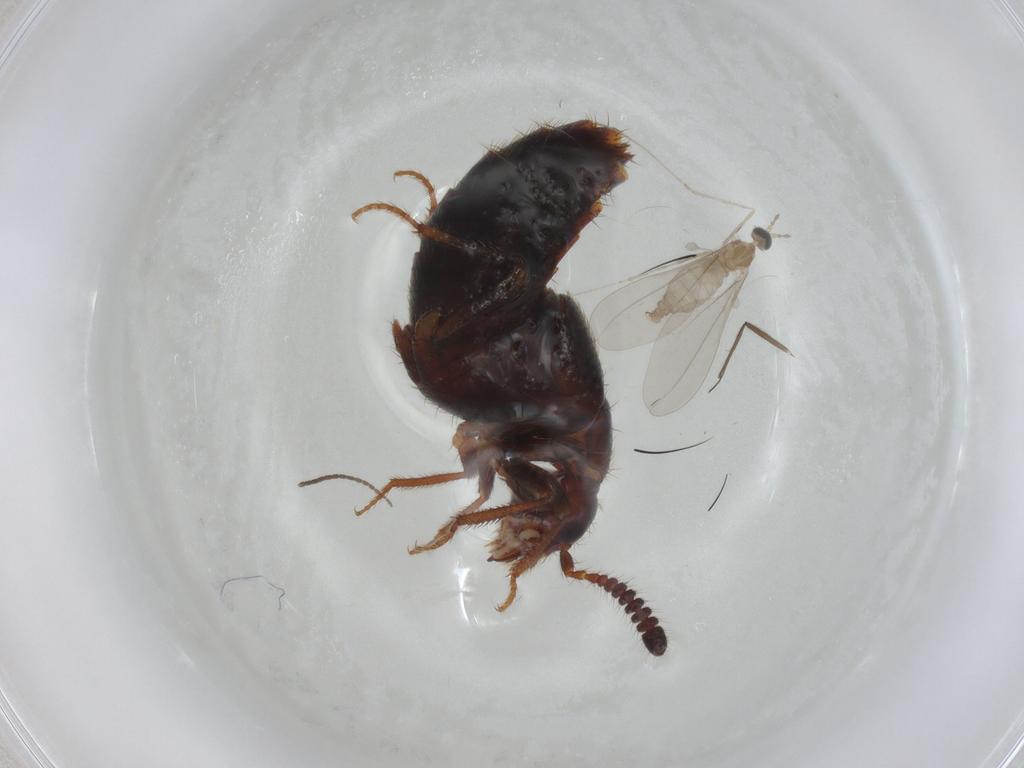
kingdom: Animalia
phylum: Arthropoda
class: Insecta
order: Coleoptera
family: Staphylinidae
